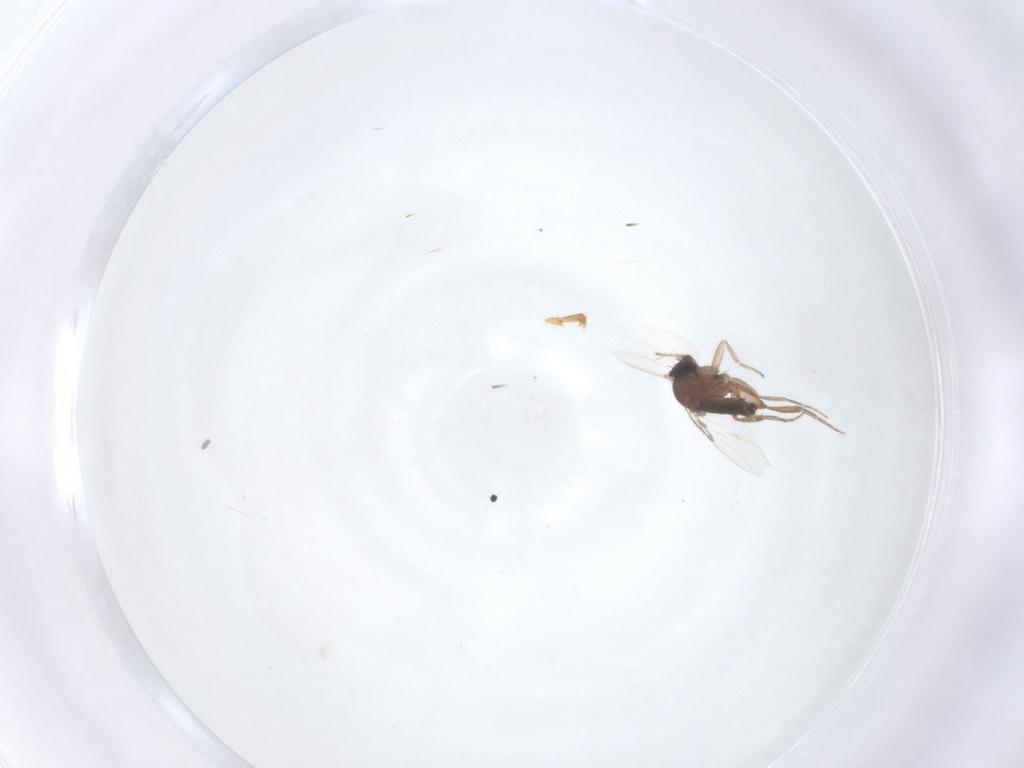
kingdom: Animalia
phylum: Arthropoda
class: Insecta
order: Diptera
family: Phoridae
